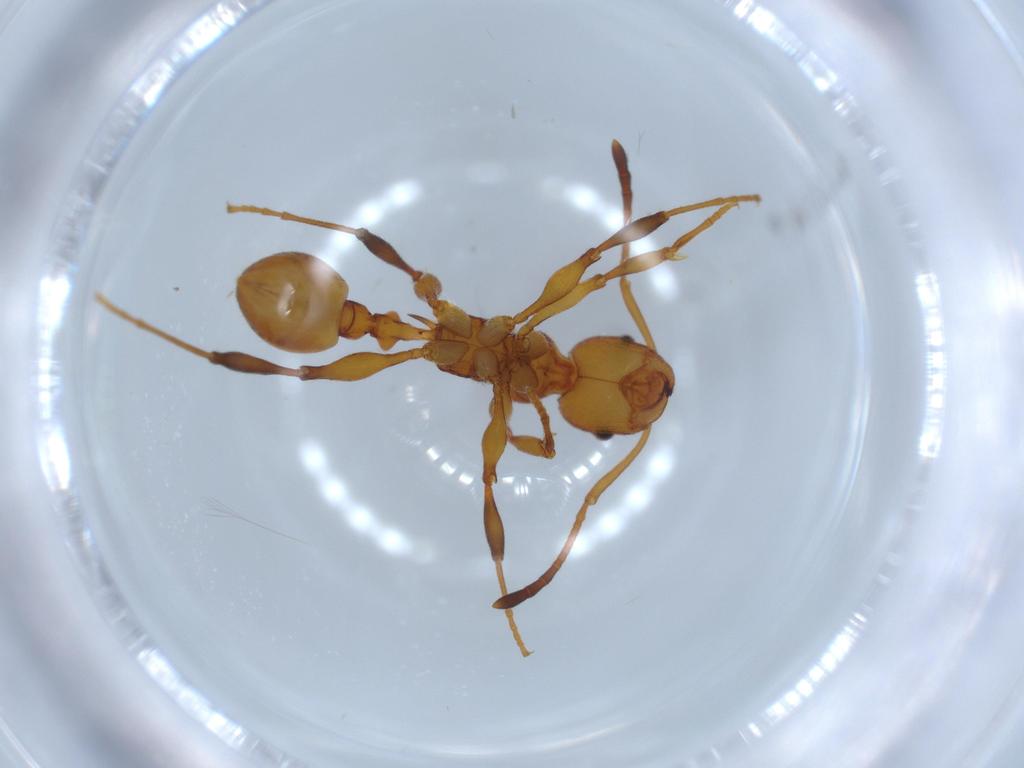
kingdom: Animalia
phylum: Arthropoda
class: Insecta
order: Hymenoptera
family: Formicidae
